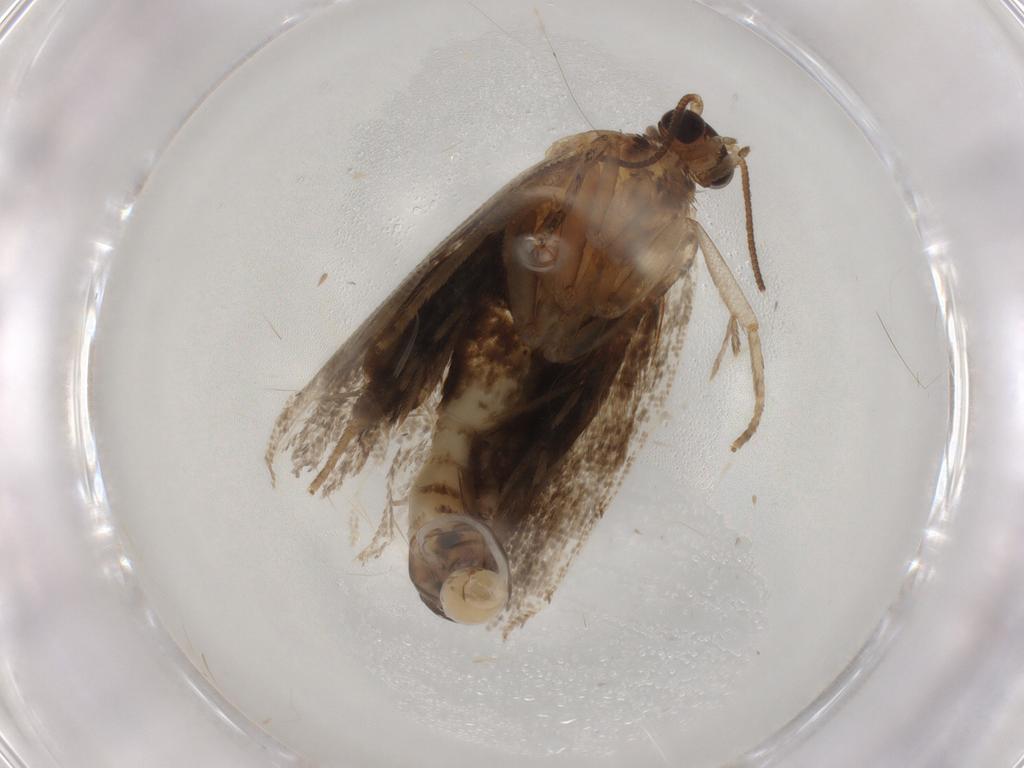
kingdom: Animalia
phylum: Arthropoda
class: Insecta
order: Lepidoptera
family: Tortricidae
